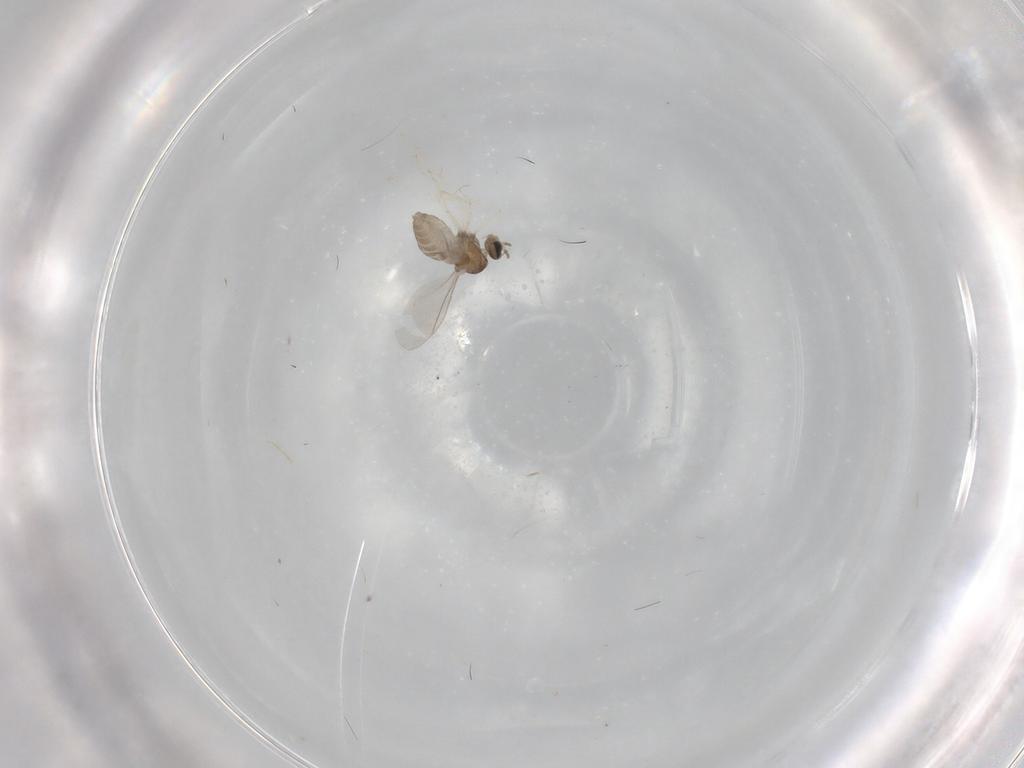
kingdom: Animalia
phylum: Arthropoda
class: Insecta
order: Diptera
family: Cecidomyiidae
